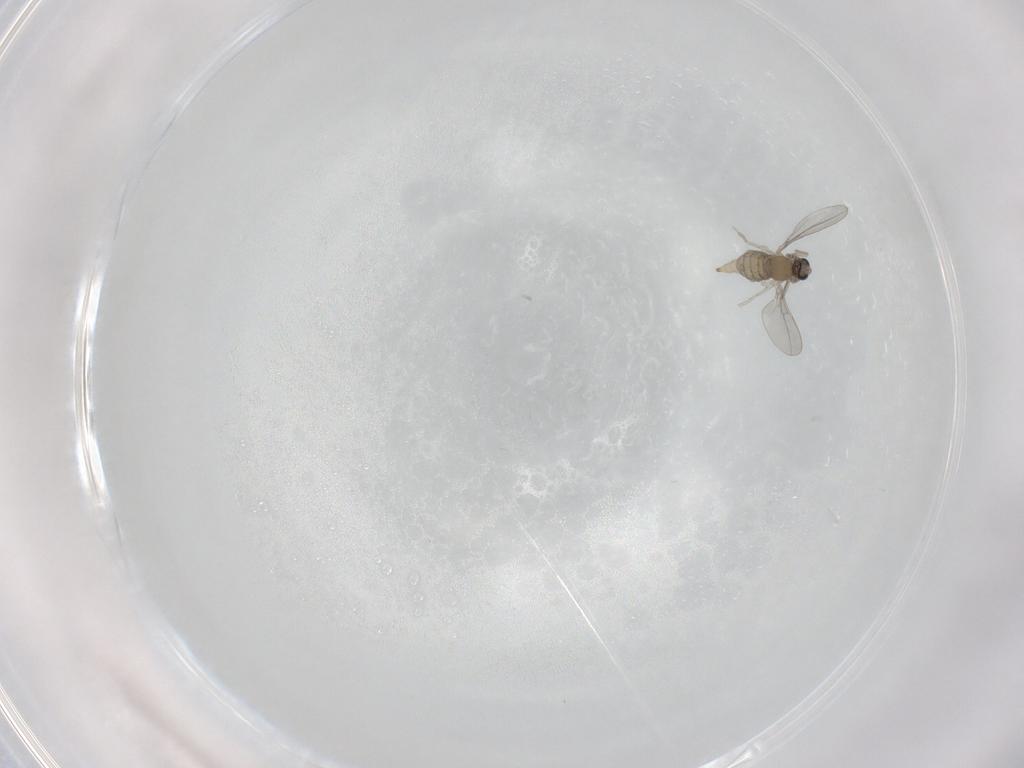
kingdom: Animalia
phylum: Arthropoda
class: Insecta
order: Diptera
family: Cecidomyiidae
